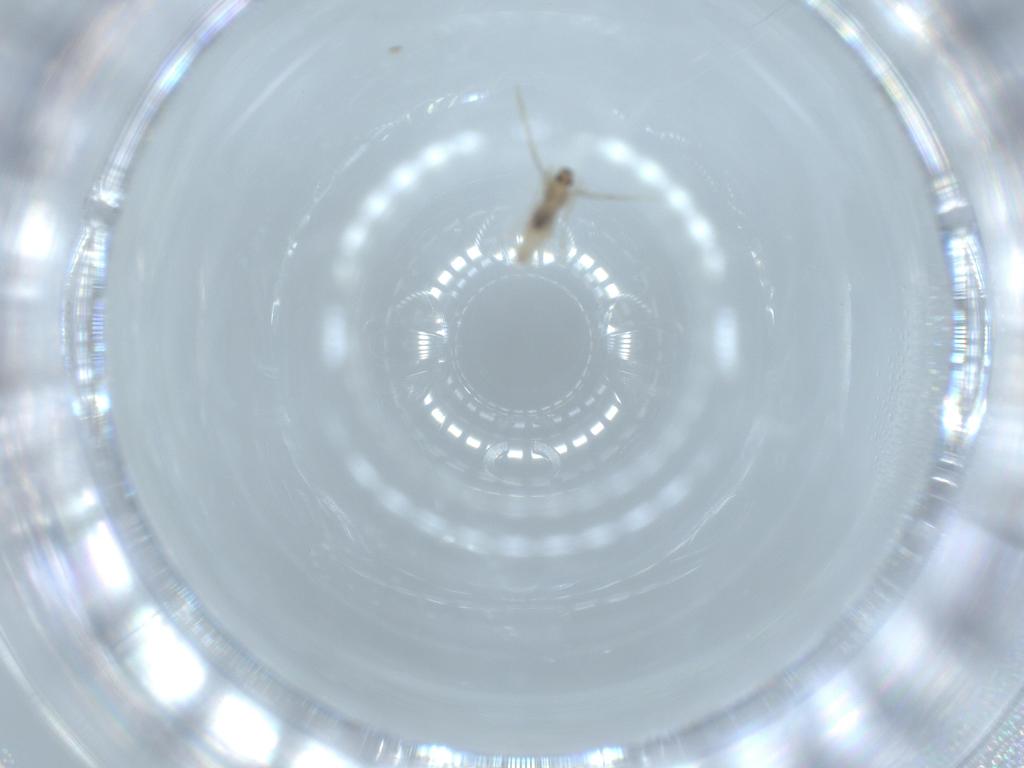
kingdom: Animalia
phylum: Arthropoda
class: Insecta
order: Diptera
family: Cecidomyiidae
